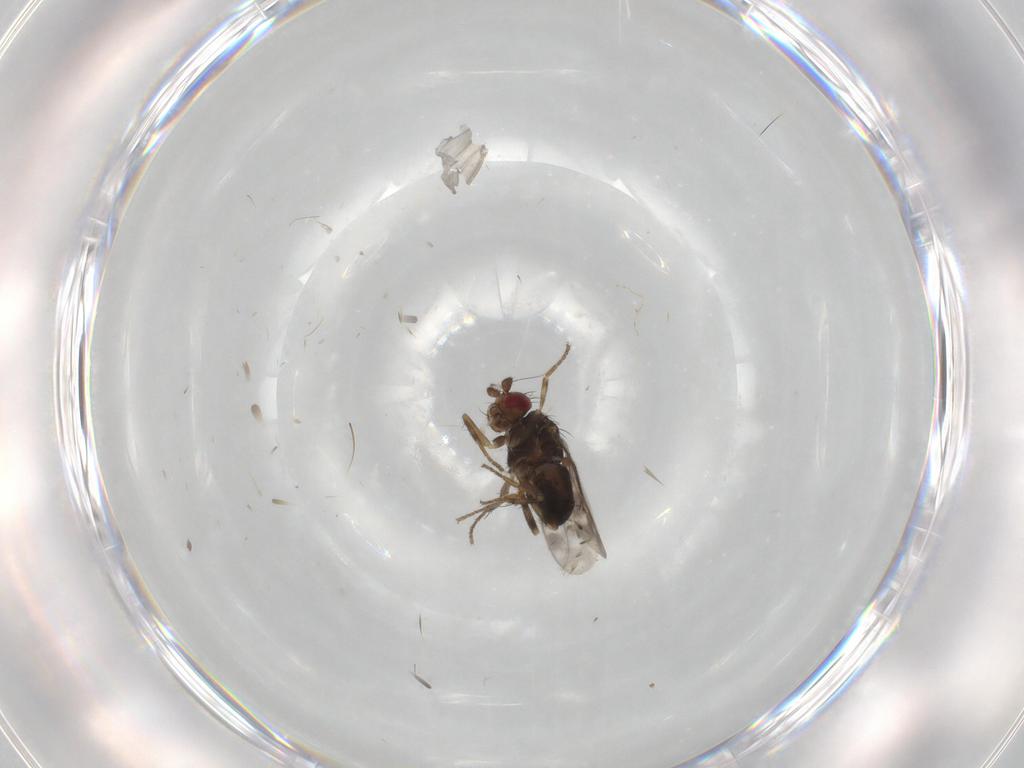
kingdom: Animalia
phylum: Arthropoda
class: Insecta
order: Diptera
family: Sphaeroceridae
